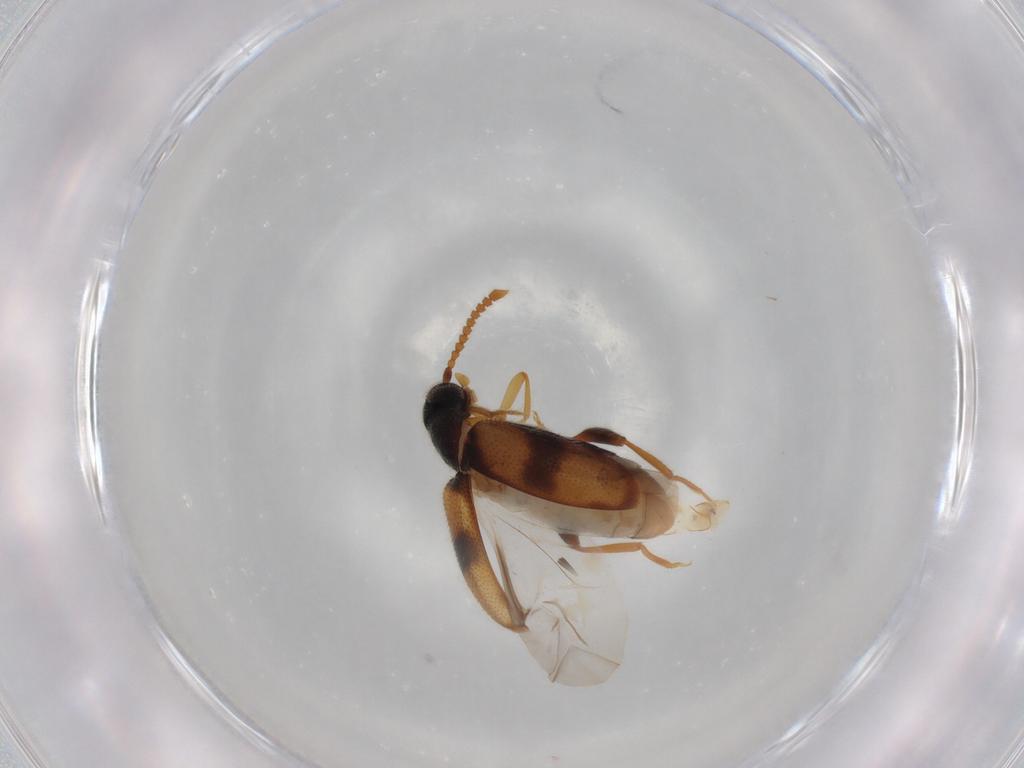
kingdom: Animalia
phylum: Arthropoda
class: Insecta
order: Coleoptera
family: Aderidae
